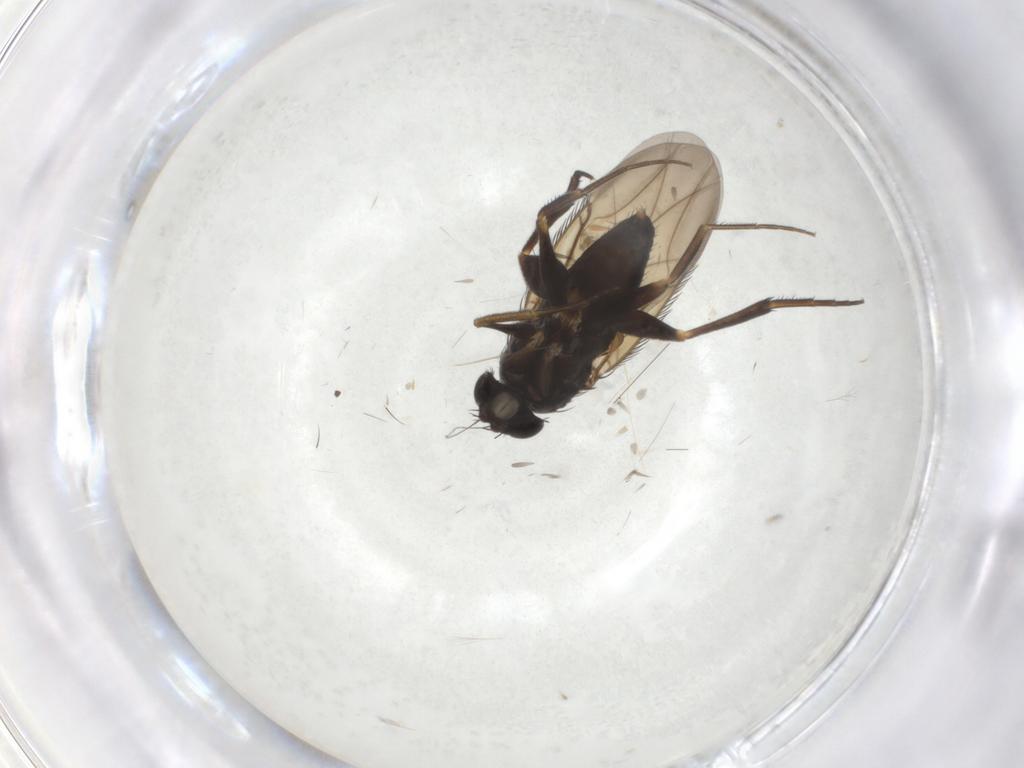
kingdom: Animalia
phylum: Arthropoda
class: Insecta
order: Diptera
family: Phoridae
